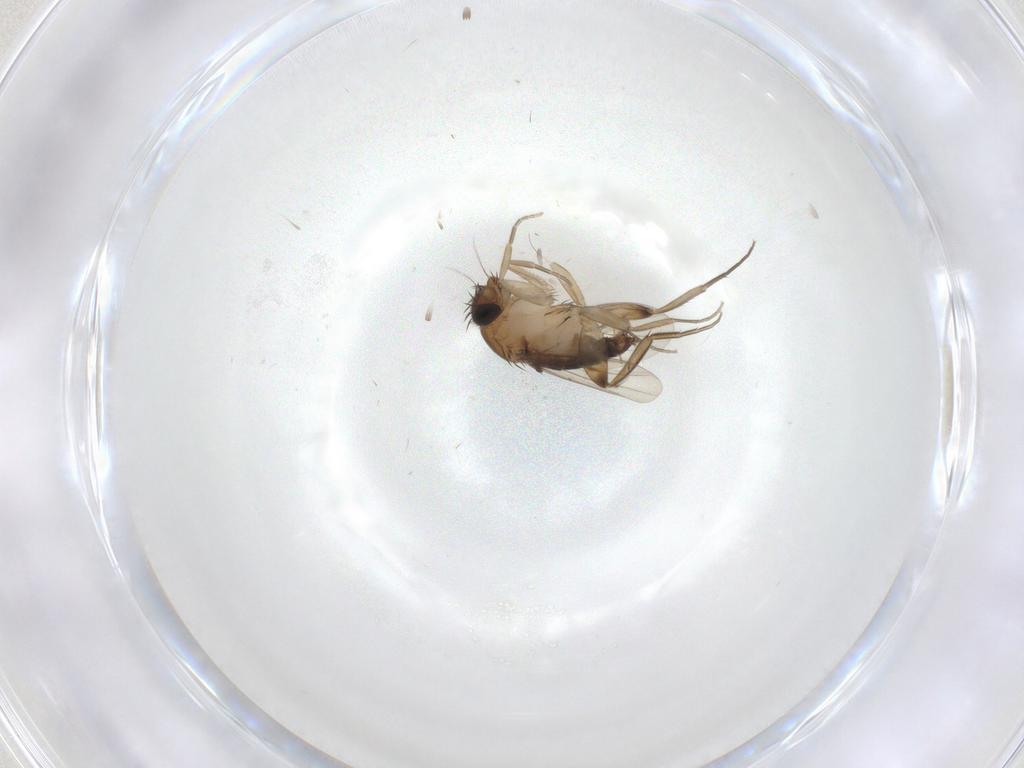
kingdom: Animalia
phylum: Arthropoda
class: Insecta
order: Diptera
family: Phoridae
